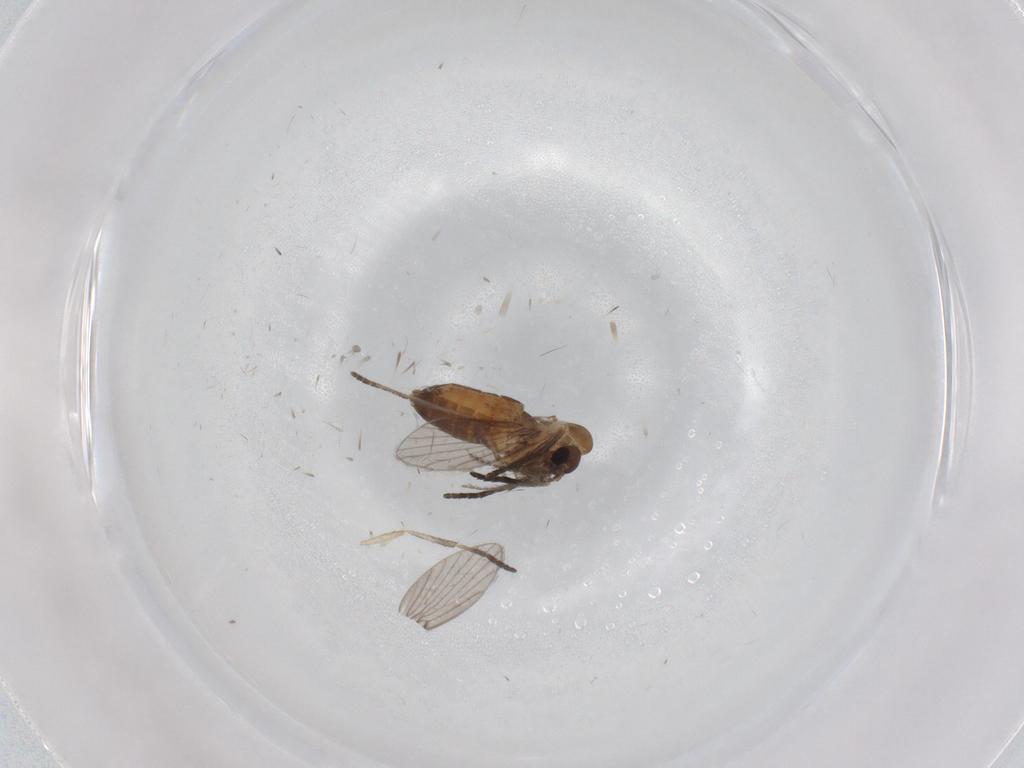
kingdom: Animalia
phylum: Arthropoda
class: Insecta
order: Diptera
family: Psychodidae
